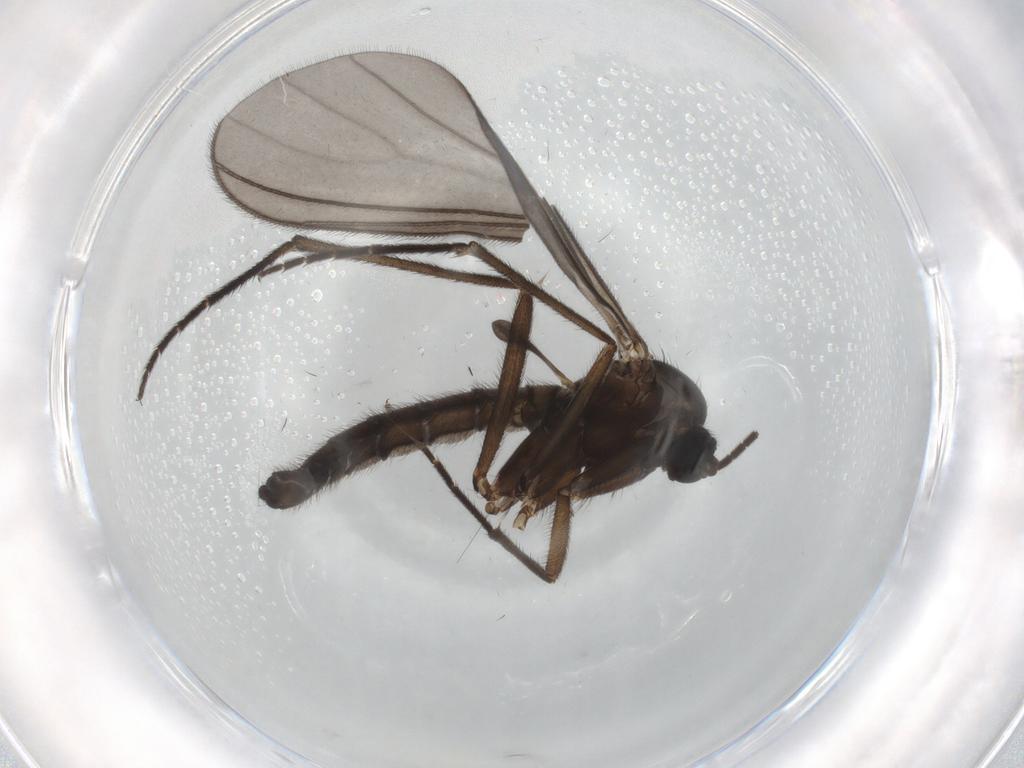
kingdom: Animalia
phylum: Arthropoda
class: Insecta
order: Diptera
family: Sciaridae
